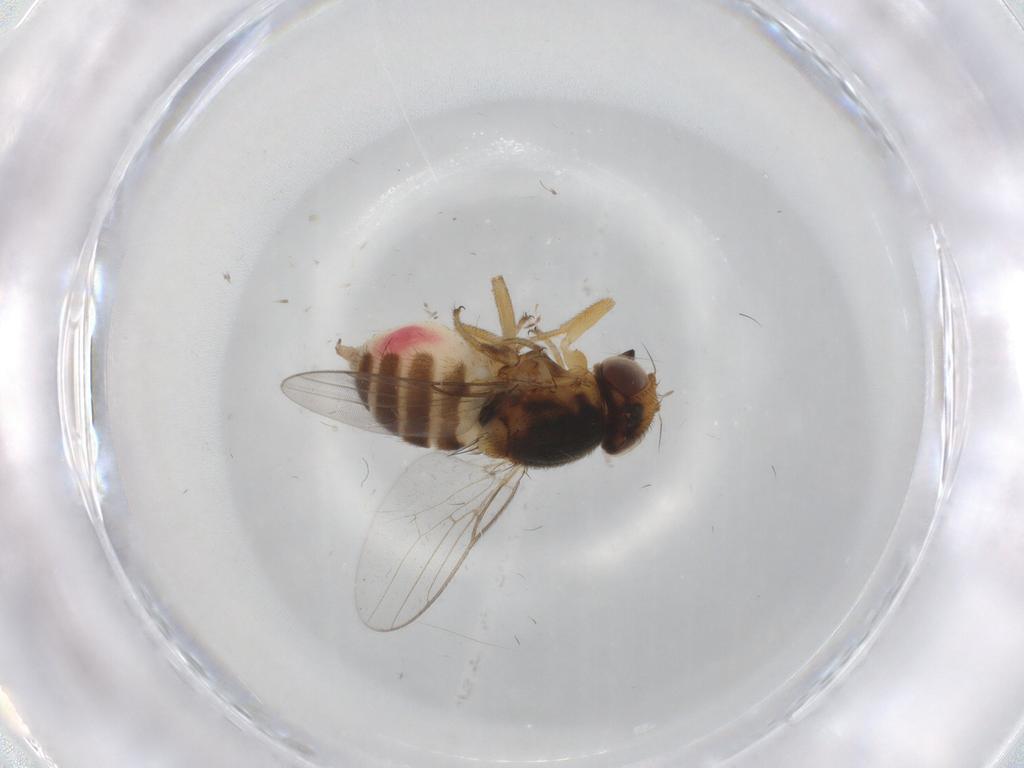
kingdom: Animalia
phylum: Arthropoda
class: Insecta
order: Diptera
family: Chloropidae
